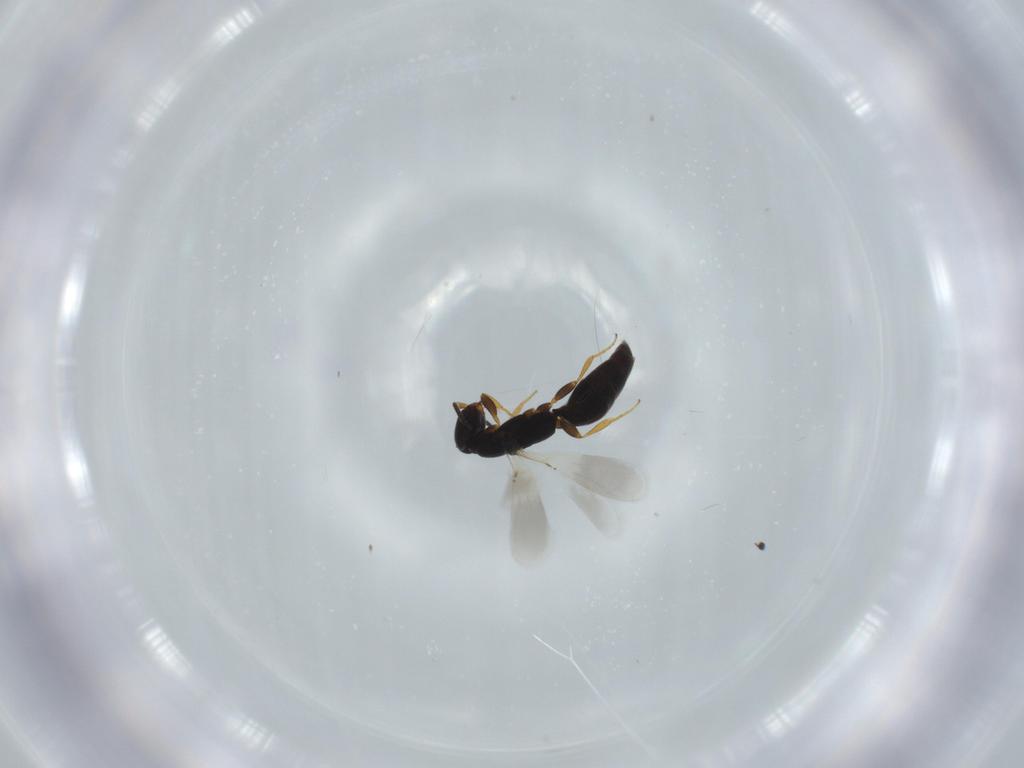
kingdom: Animalia
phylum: Arthropoda
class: Insecta
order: Hymenoptera
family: Bethylidae
